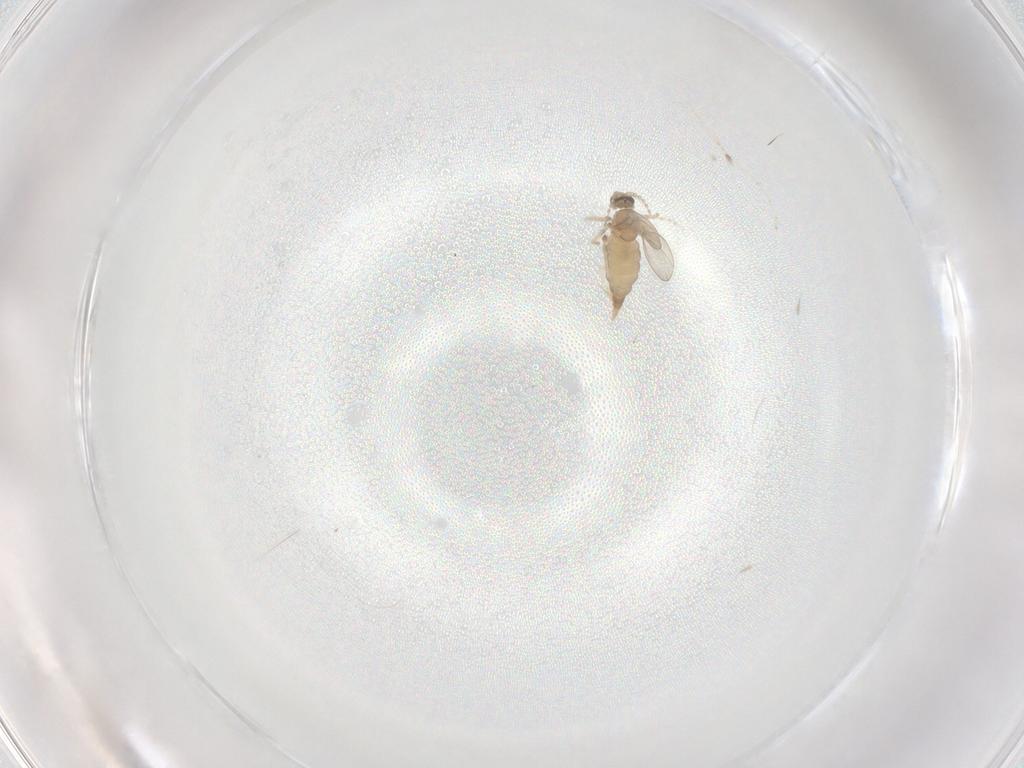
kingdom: Animalia
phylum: Arthropoda
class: Insecta
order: Diptera
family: Cecidomyiidae
